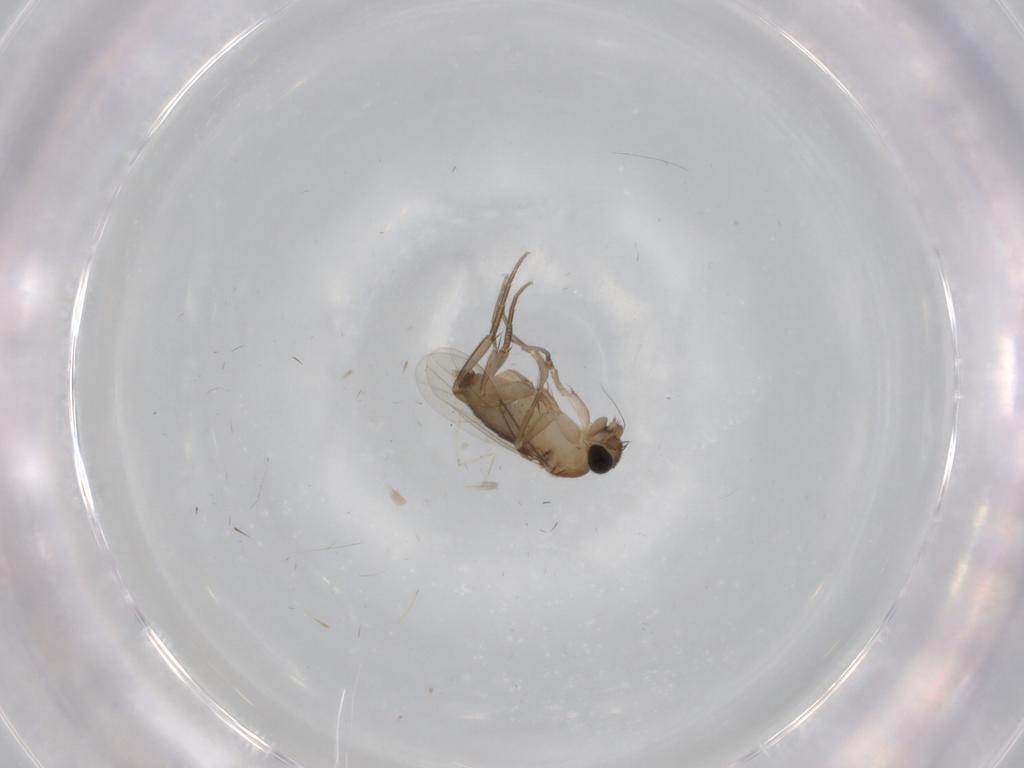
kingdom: Animalia
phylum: Arthropoda
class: Insecta
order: Diptera
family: Phoridae
